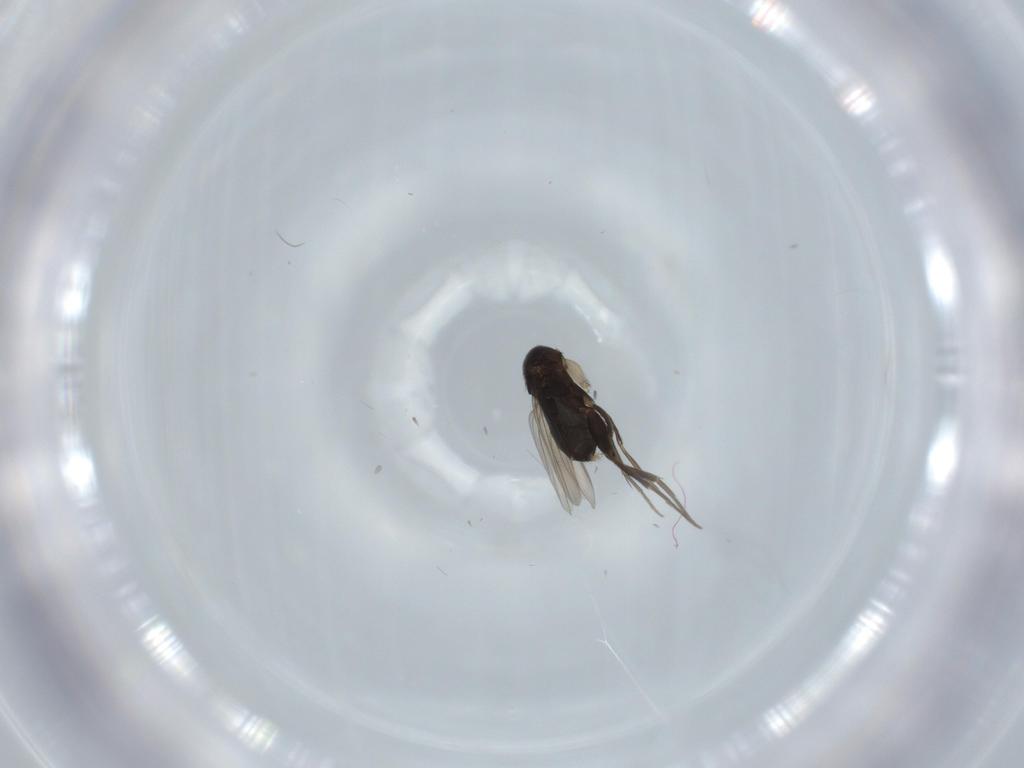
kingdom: Animalia
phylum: Arthropoda
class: Insecta
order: Diptera
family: Phoridae
